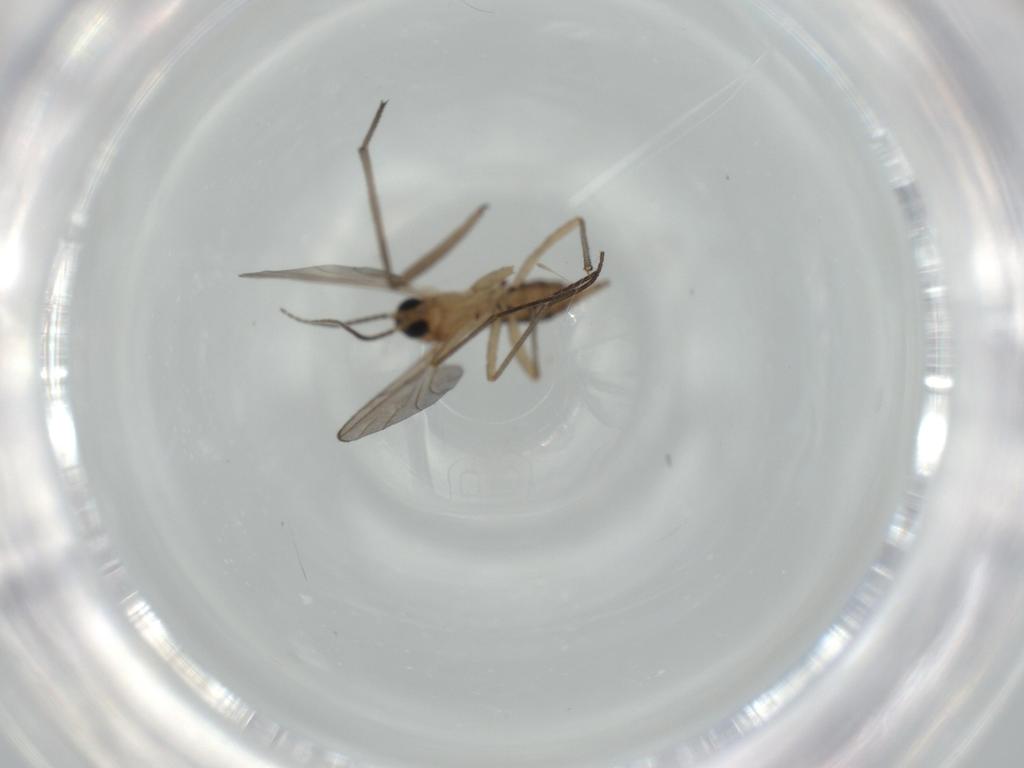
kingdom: Animalia
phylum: Arthropoda
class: Insecta
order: Diptera
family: Sciaridae
